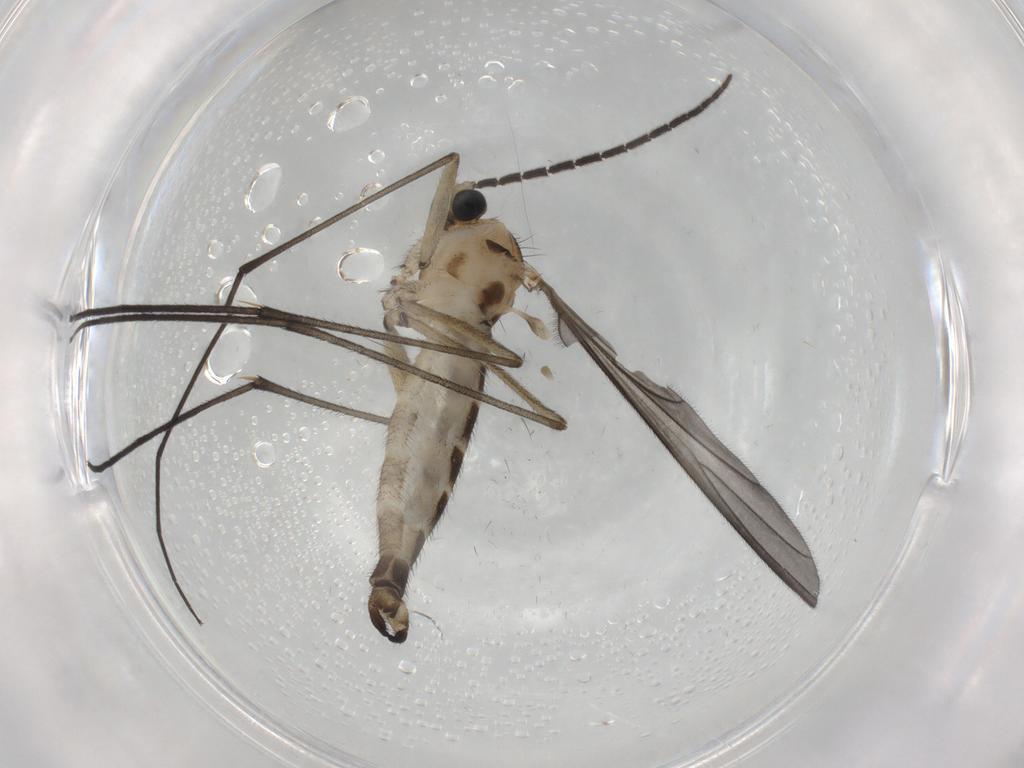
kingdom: Animalia
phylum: Arthropoda
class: Insecta
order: Diptera
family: Sciaridae
